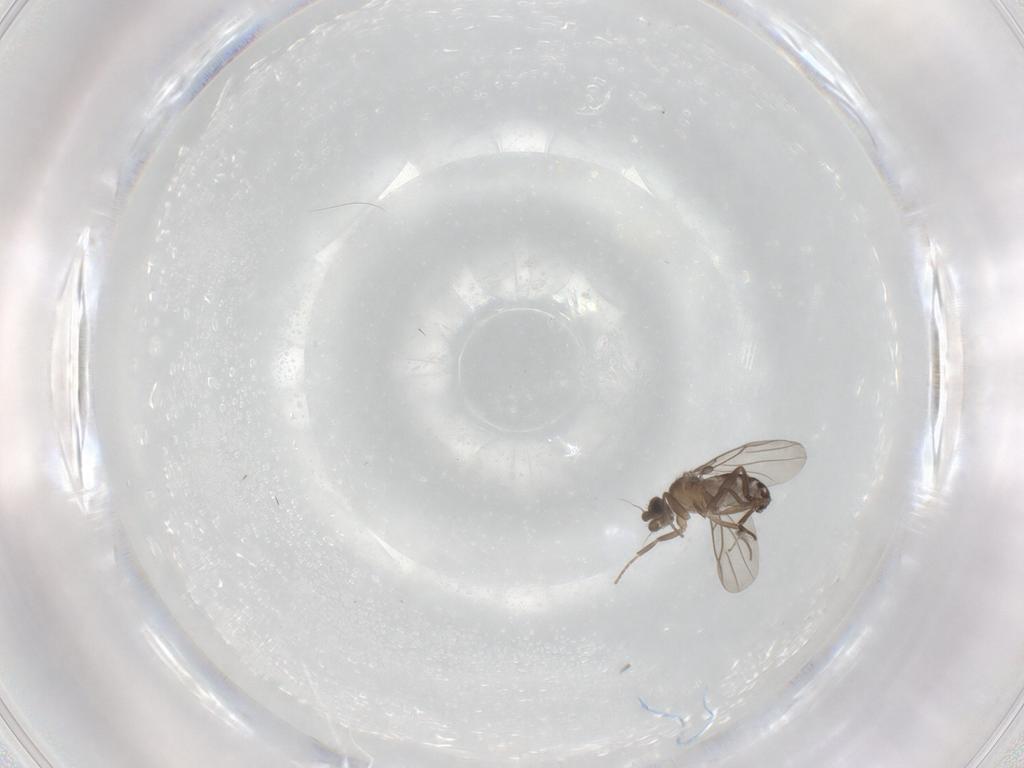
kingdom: Animalia
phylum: Arthropoda
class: Insecta
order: Diptera
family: Phoridae
